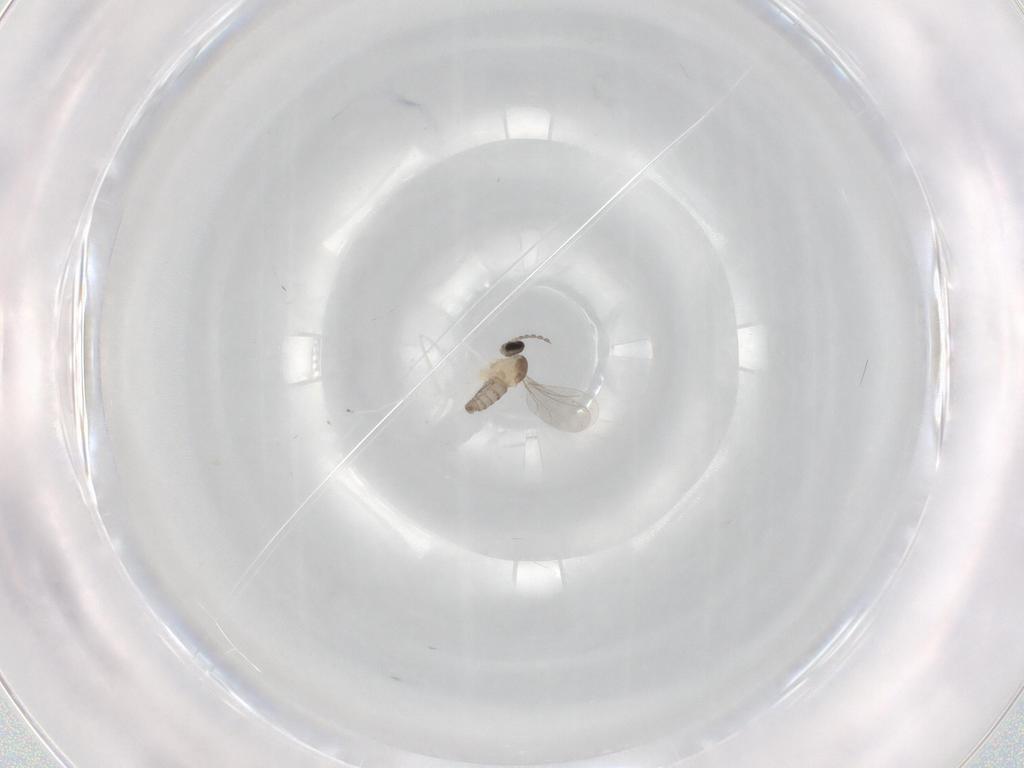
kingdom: Animalia
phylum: Arthropoda
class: Insecta
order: Diptera
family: Cecidomyiidae
